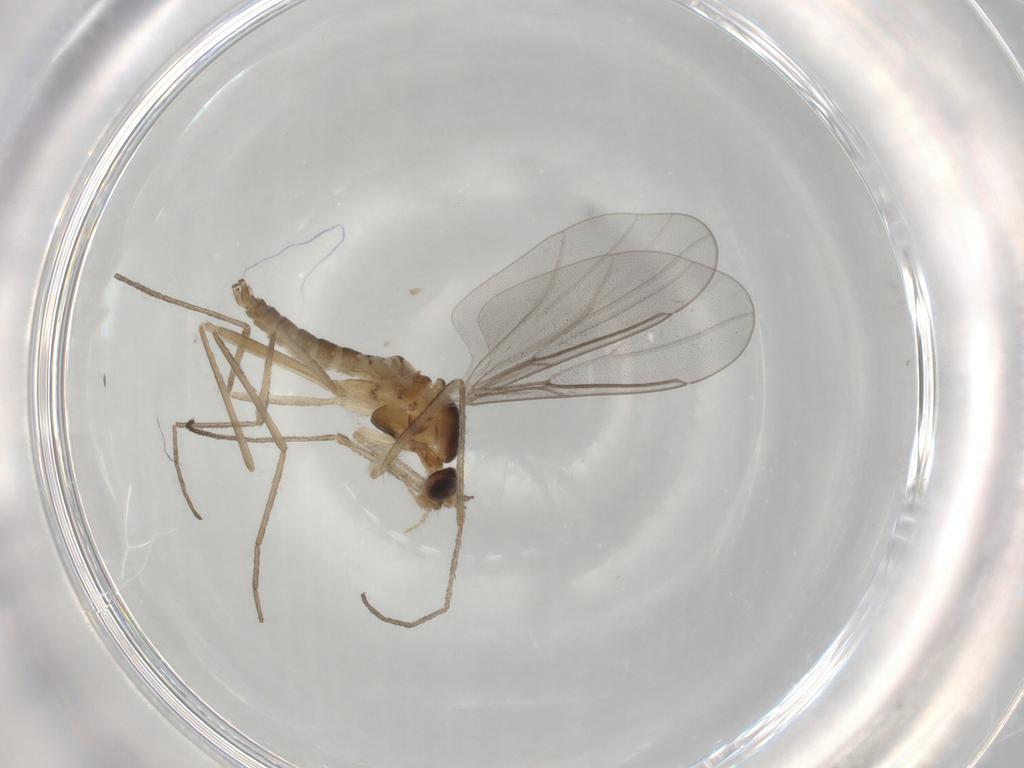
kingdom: Animalia
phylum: Arthropoda
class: Insecta
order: Diptera
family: Cecidomyiidae
